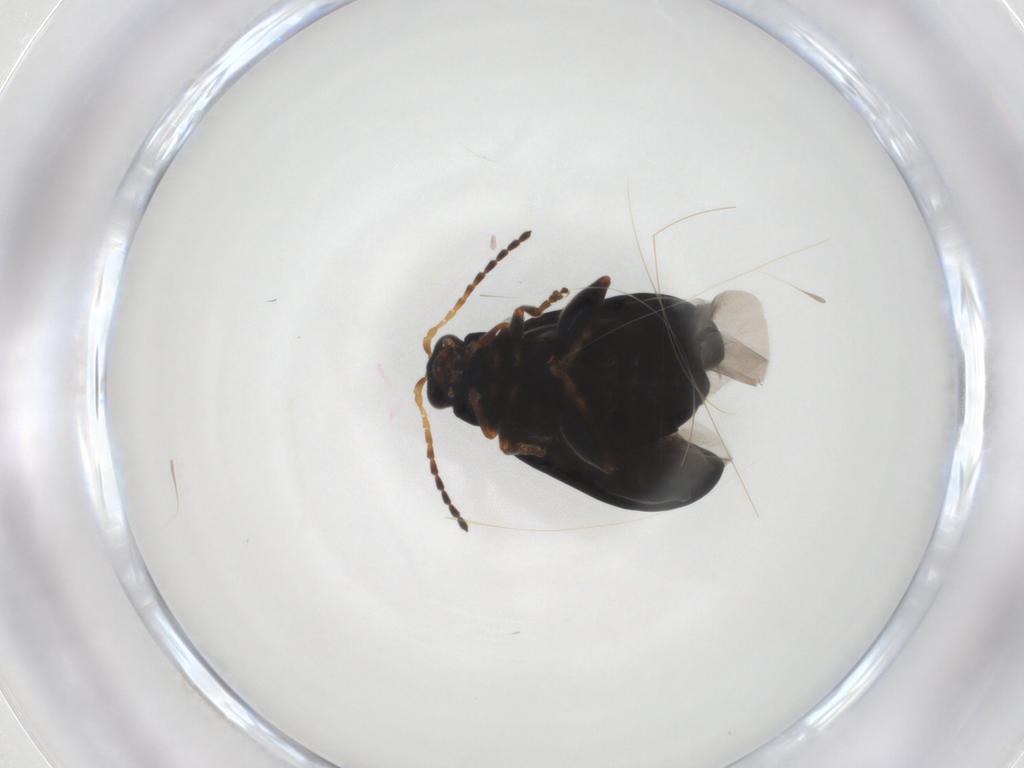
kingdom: Animalia
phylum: Arthropoda
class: Insecta
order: Coleoptera
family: Chrysomelidae
